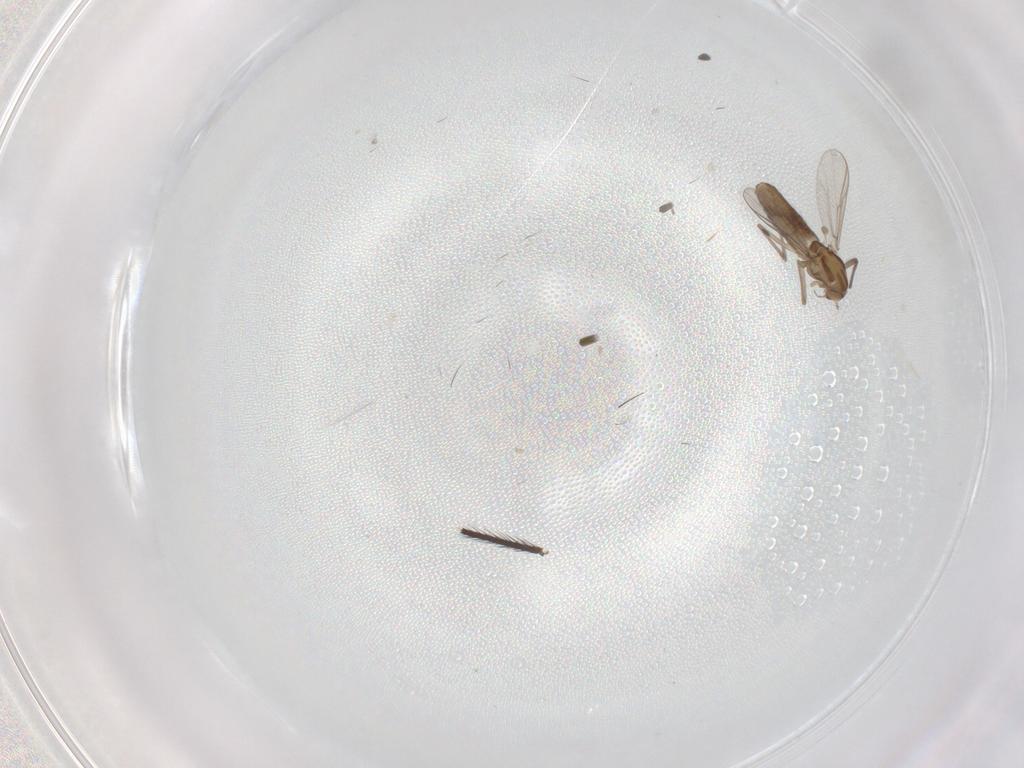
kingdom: Animalia
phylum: Arthropoda
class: Insecta
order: Diptera
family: Chironomidae
